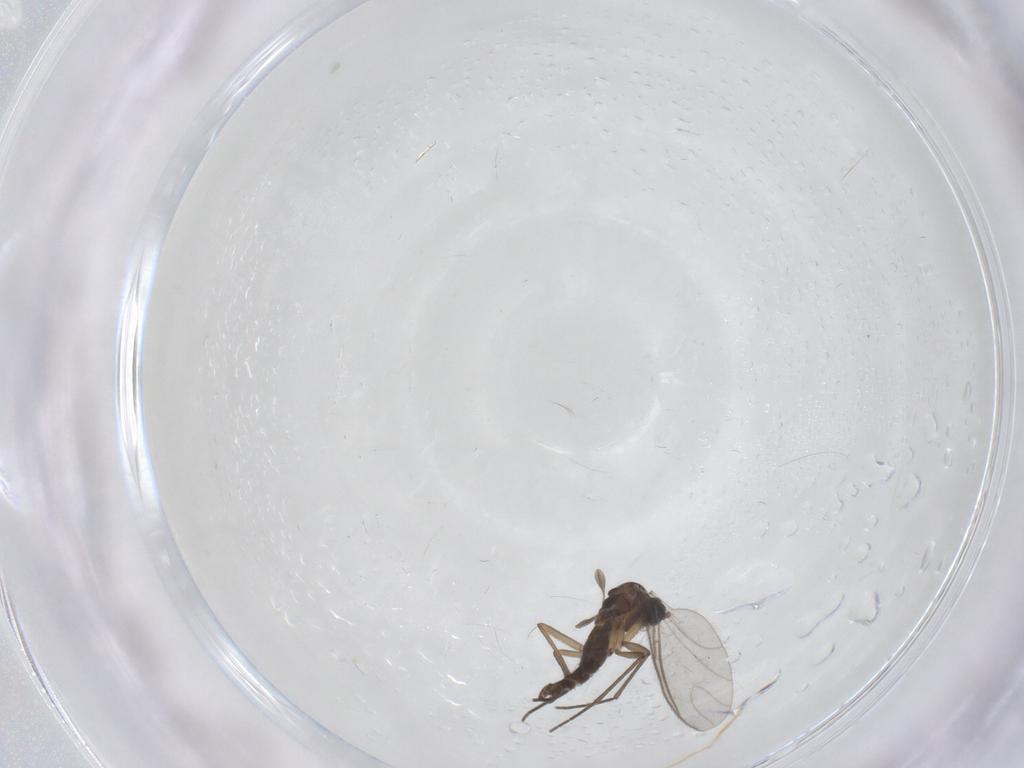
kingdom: Animalia
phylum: Arthropoda
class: Insecta
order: Diptera
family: Sciaridae
